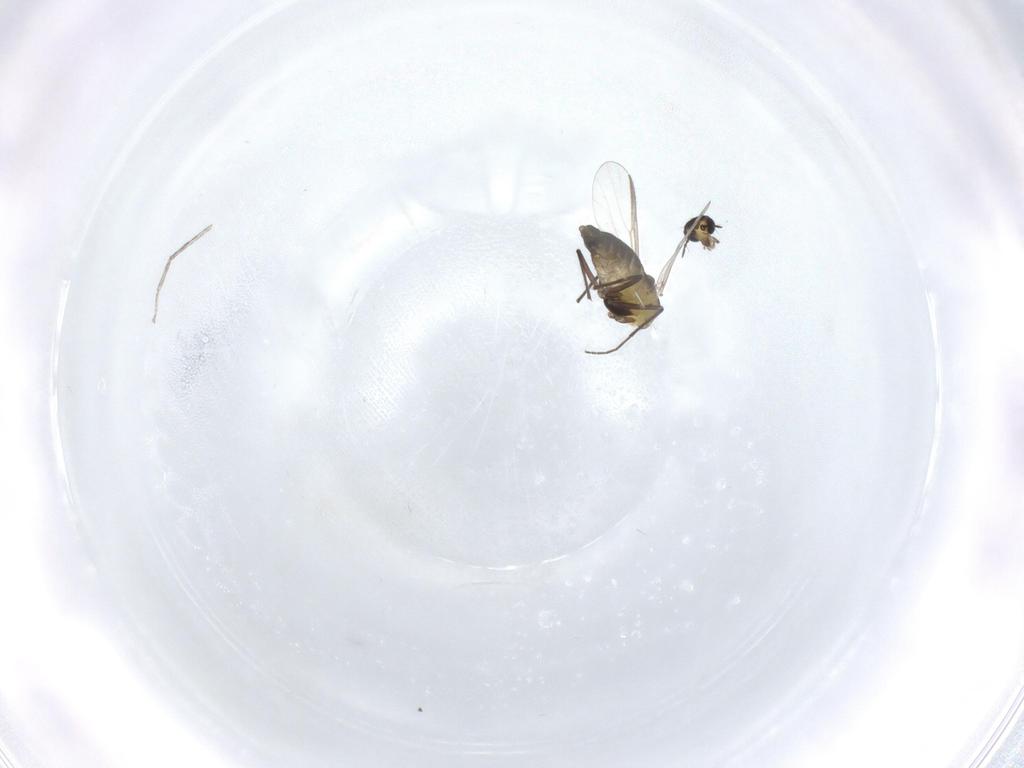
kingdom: Animalia
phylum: Arthropoda
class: Insecta
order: Diptera
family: Chironomidae
